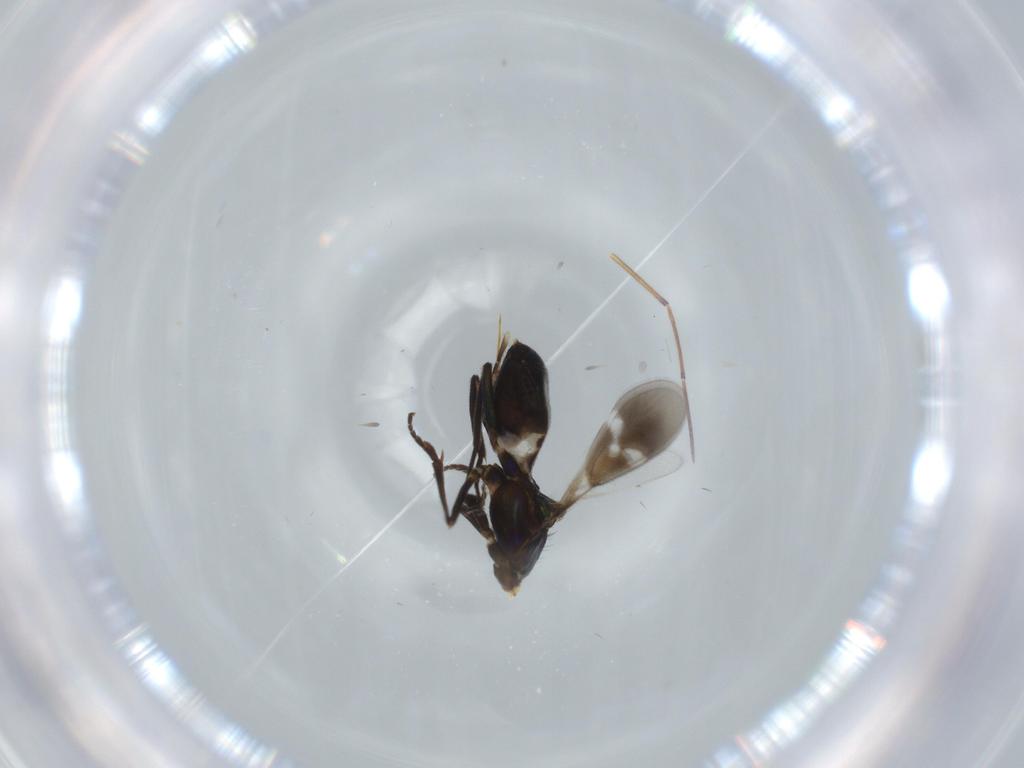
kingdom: Animalia
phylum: Arthropoda
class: Insecta
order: Hymenoptera
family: Eupelmidae
